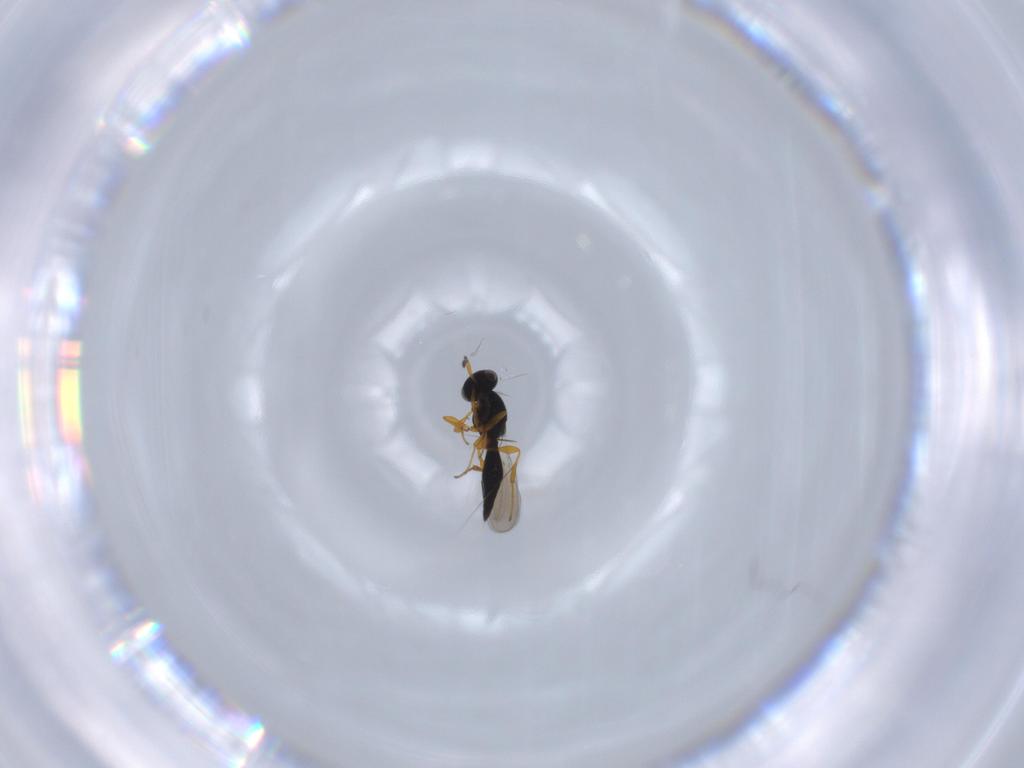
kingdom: Animalia
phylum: Arthropoda
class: Insecta
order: Hymenoptera
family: Platygastridae
